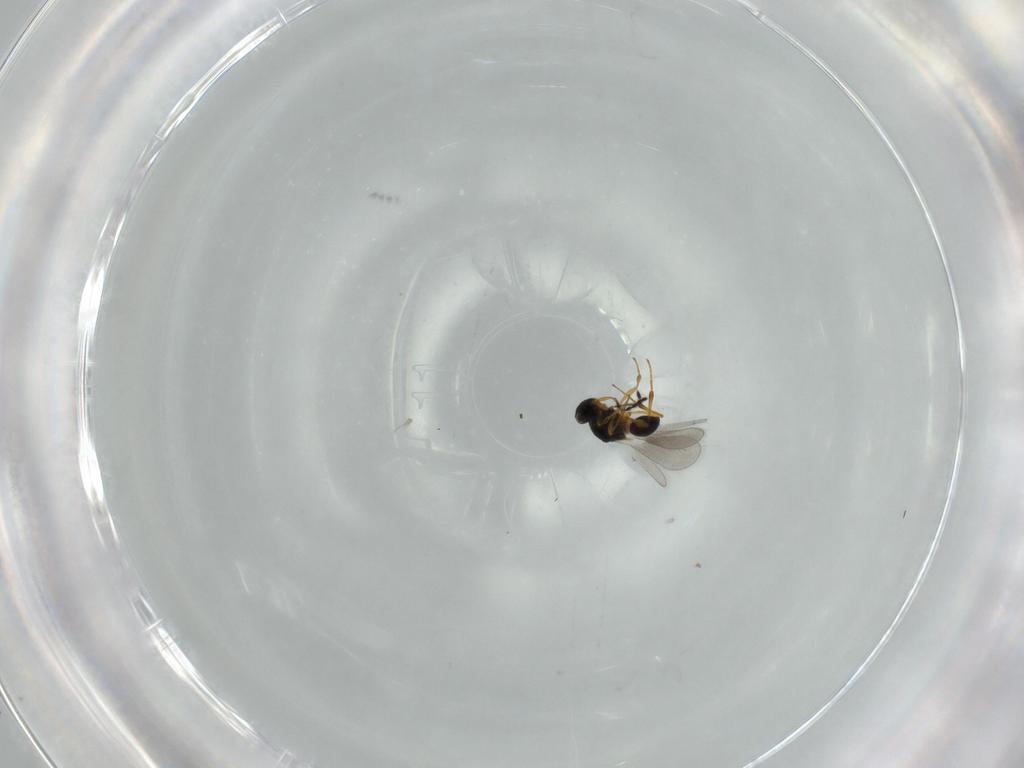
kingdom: Animalia
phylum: Arthropoda
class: Insecta
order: Hymenoptera
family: Platygastridae
